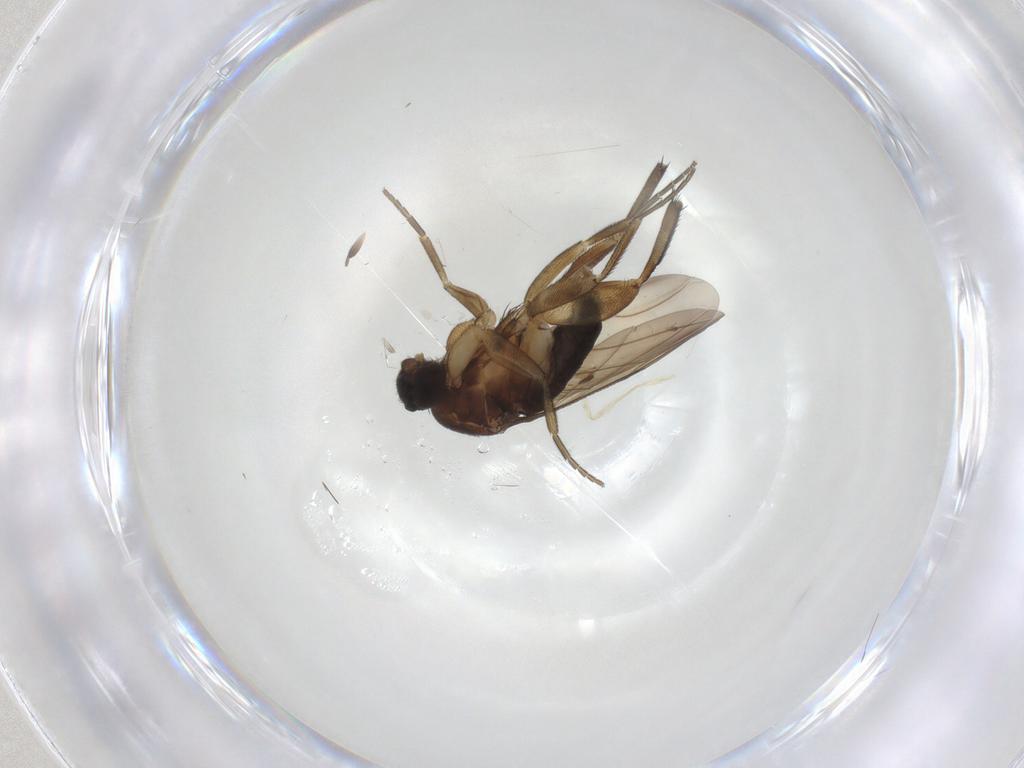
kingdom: Animalia
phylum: Arthropoda
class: Insecta
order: Diptera
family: Phoridae
